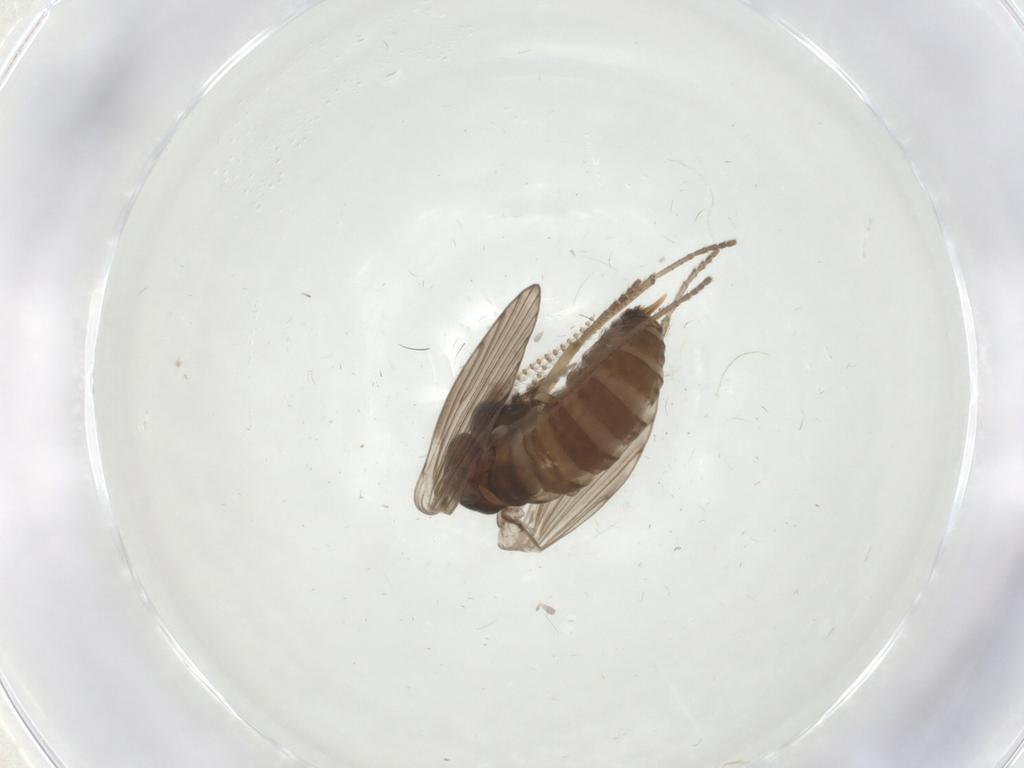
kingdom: Animalia
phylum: Arthropoda
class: Insecta
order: Diptera
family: Psychodidae
